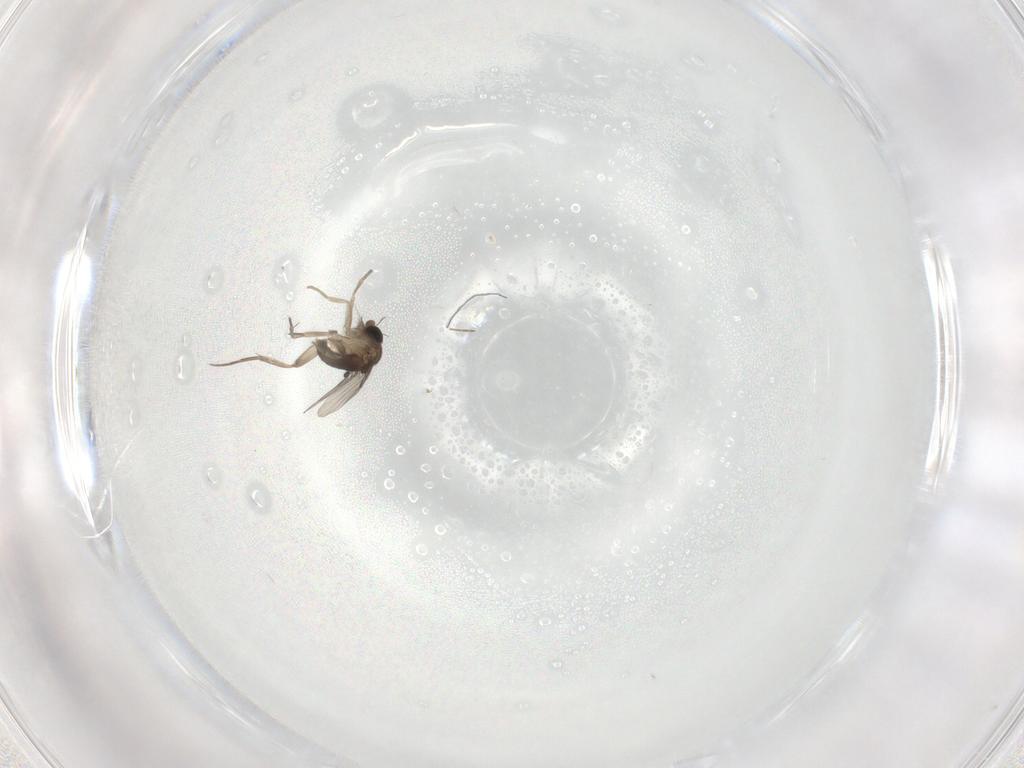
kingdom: Animalia
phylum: Arthropoda
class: Insecta
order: Diptera
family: Phoridae
